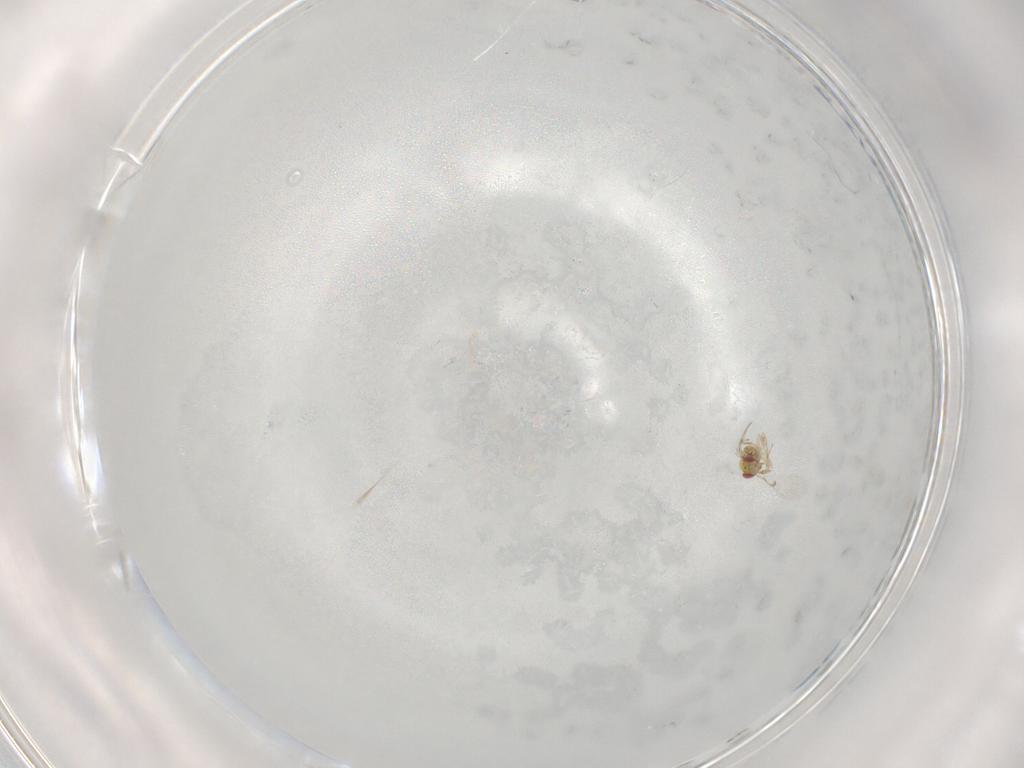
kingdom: Animalia
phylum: Arthropoda
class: Insecta
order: Hymenoptera
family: Trichogrammatidae
